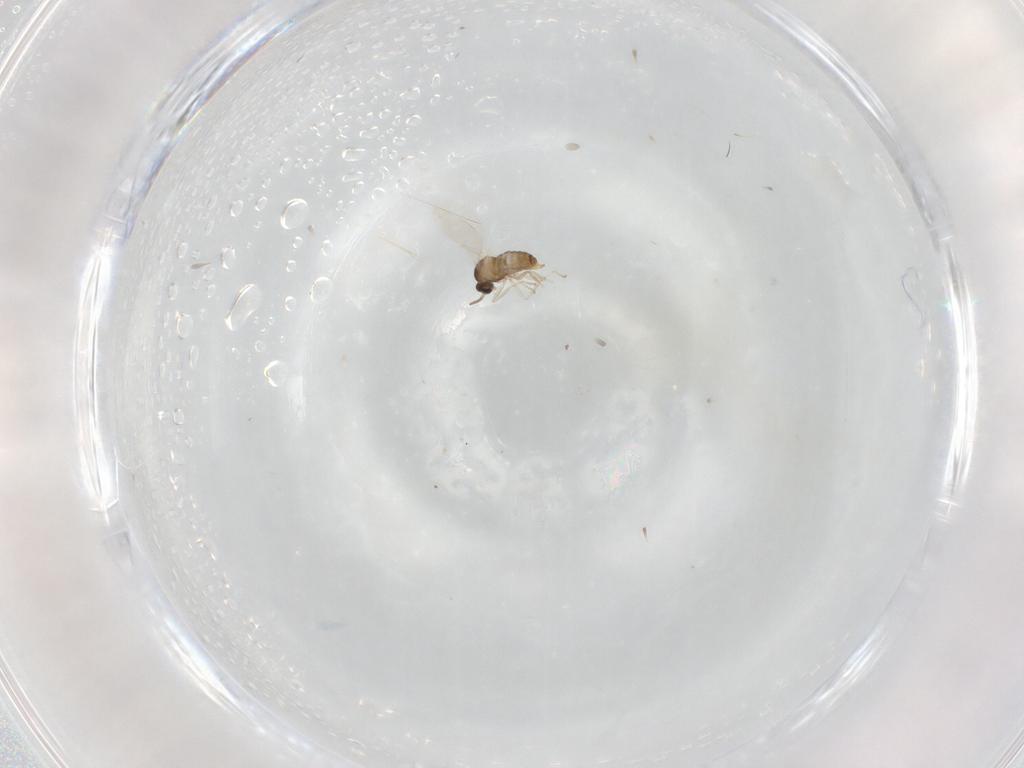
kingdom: Animalia
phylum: Arthropoda
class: Insecta
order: Diptera
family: Cecidomyiidae
